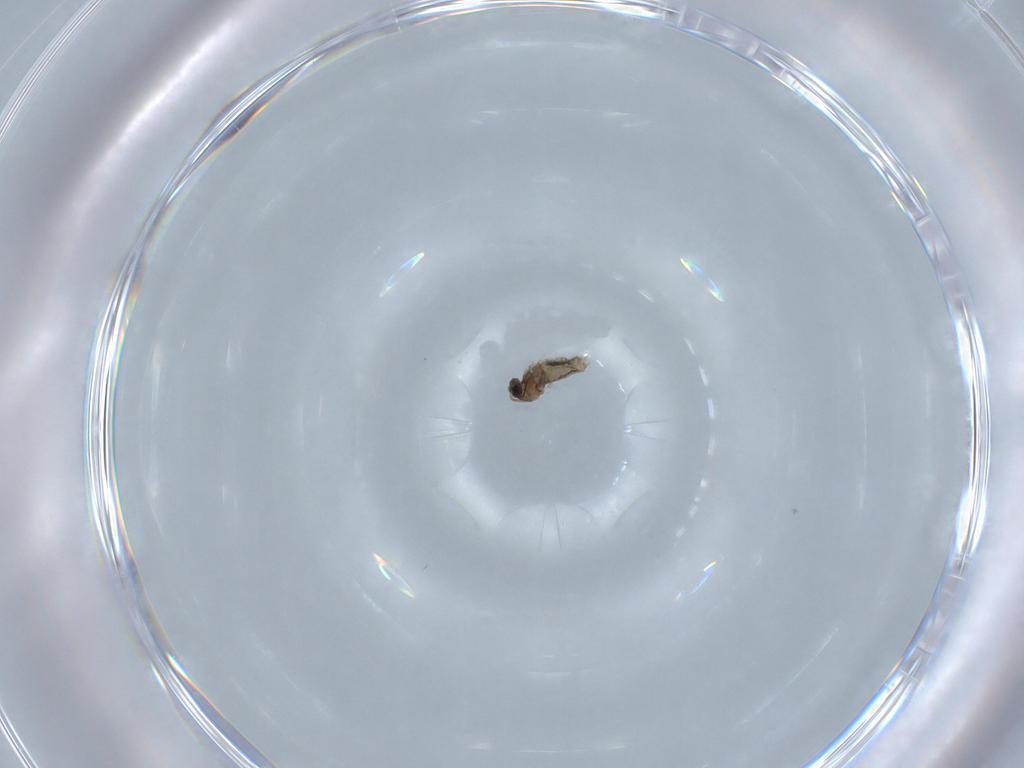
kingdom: Animalia
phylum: Arthropoda
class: Insecta
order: Diptera
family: Cecidomyiidae
